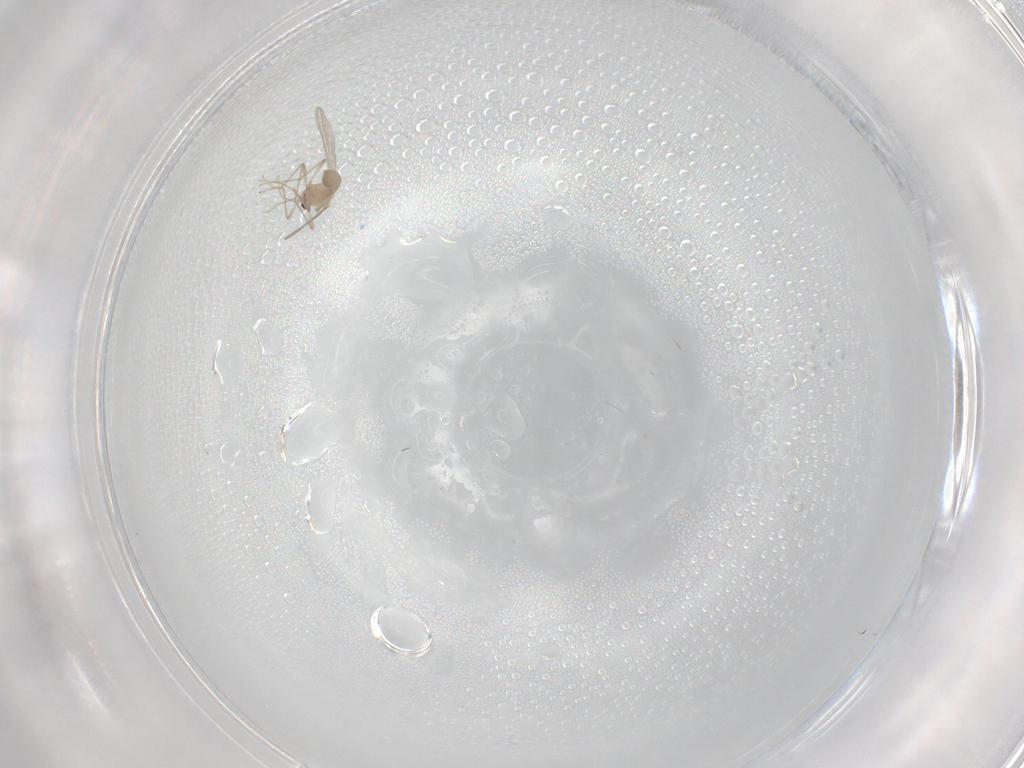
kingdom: Animalia
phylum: Arthropoda
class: Insecta
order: Diptera
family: Chironomidae
